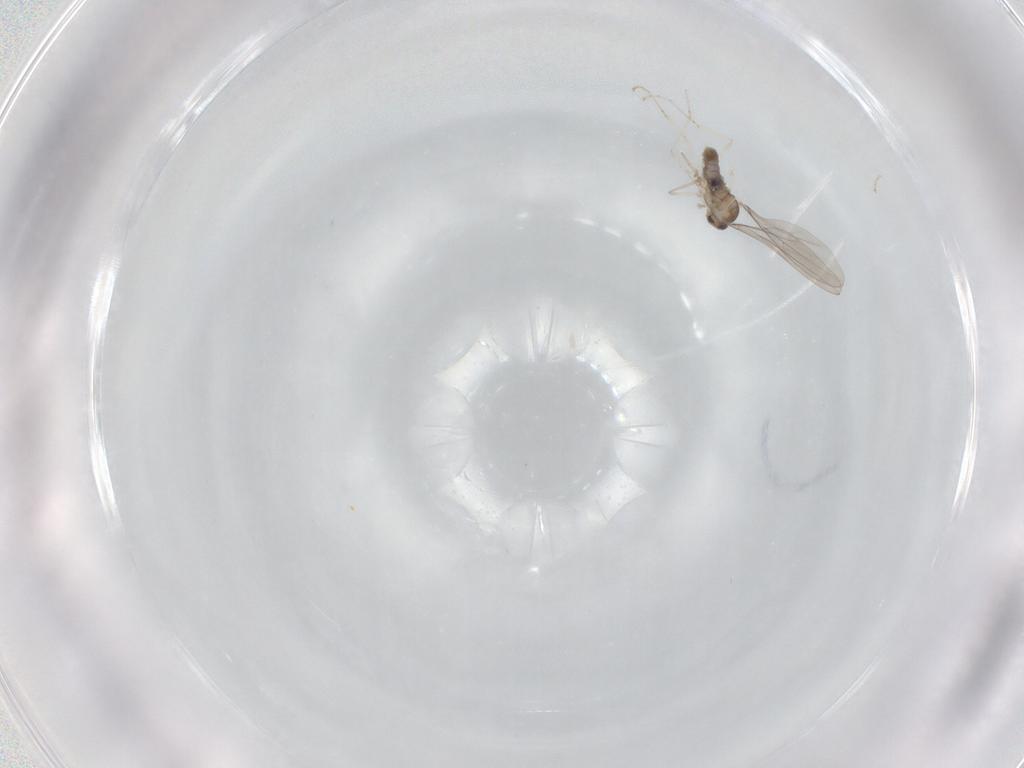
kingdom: Animalia
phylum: Arthropoda
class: Insecta
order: Diptera
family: Cecidomyiidae
